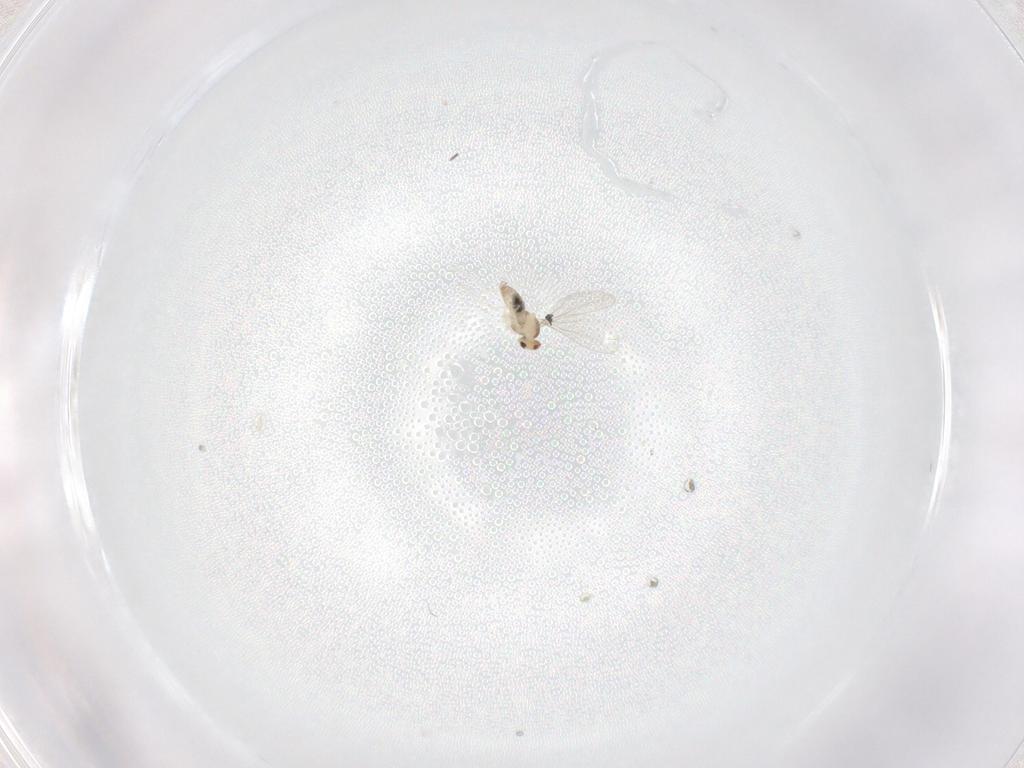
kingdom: Animalia
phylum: Arthropoda
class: Insecta
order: Diptera
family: Cecidomyiidae
